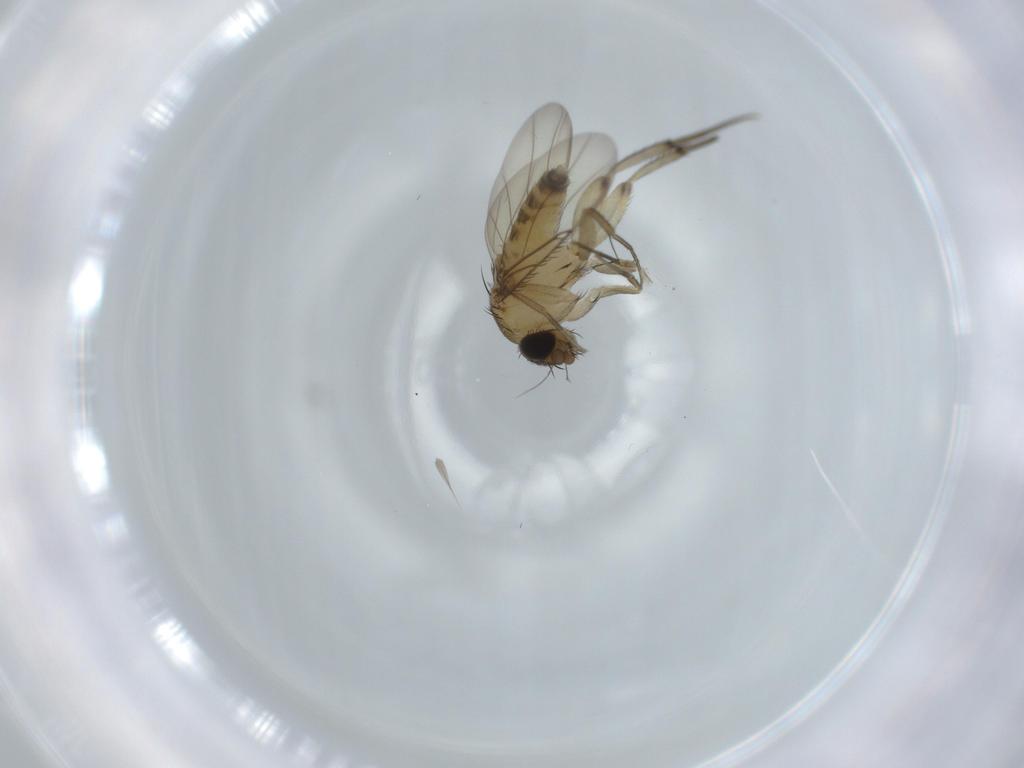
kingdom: Animalia
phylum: Arthropoda
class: Insecta
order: Diptera
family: Phoridae
